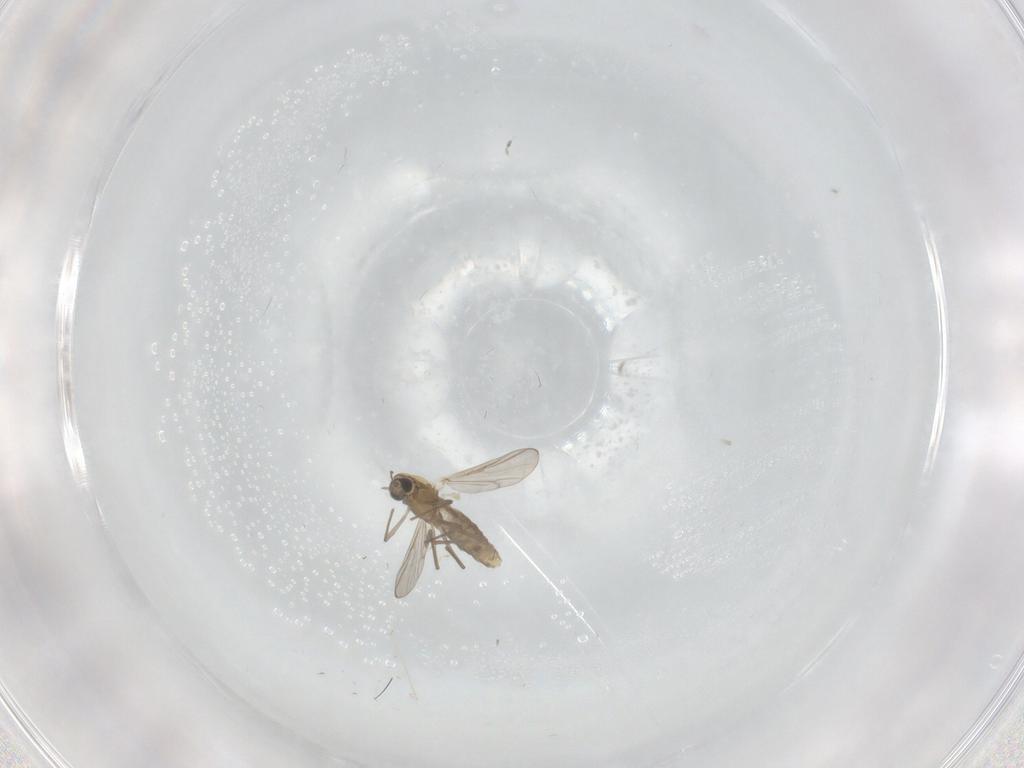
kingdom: Animalia
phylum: Arthropoda
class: Insecta
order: Diptera
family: Chironomidae
